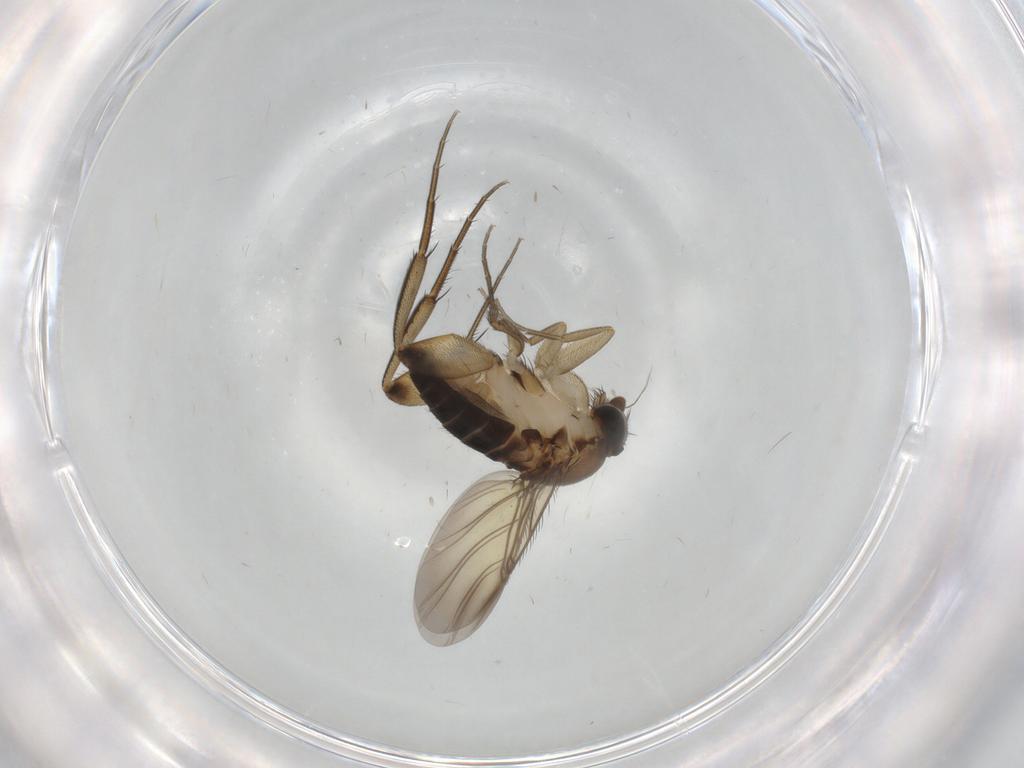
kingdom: Animalia
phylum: Arthropoda
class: Insecta
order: Diptera
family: Phoridae
